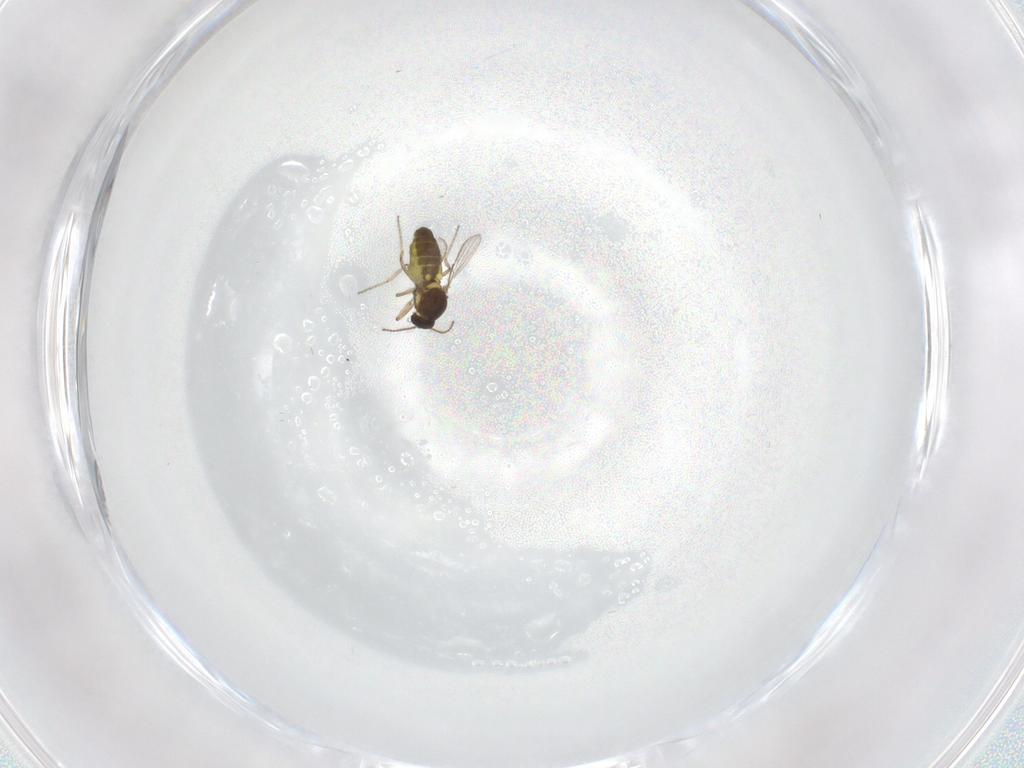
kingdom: Animalia
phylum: Arthropoda
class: Insecta
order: Diptera
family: Ceratopogonidae
